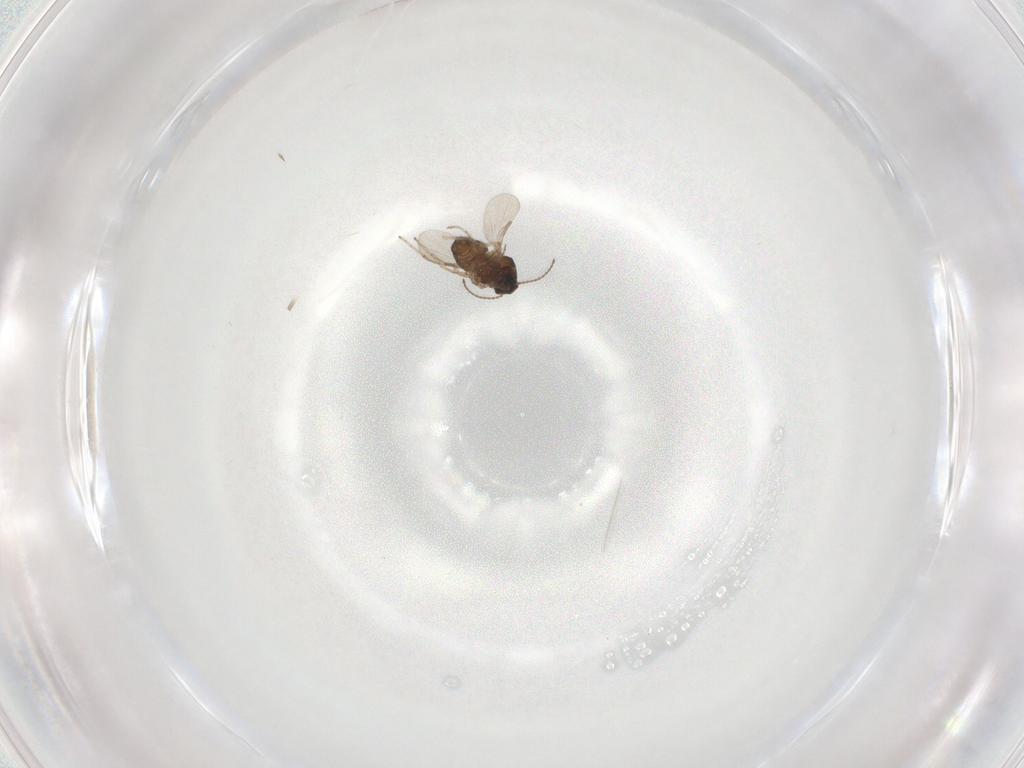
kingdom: Animalia
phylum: Arthropoda
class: Insecta
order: Diptera
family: Ceratopogonidae
